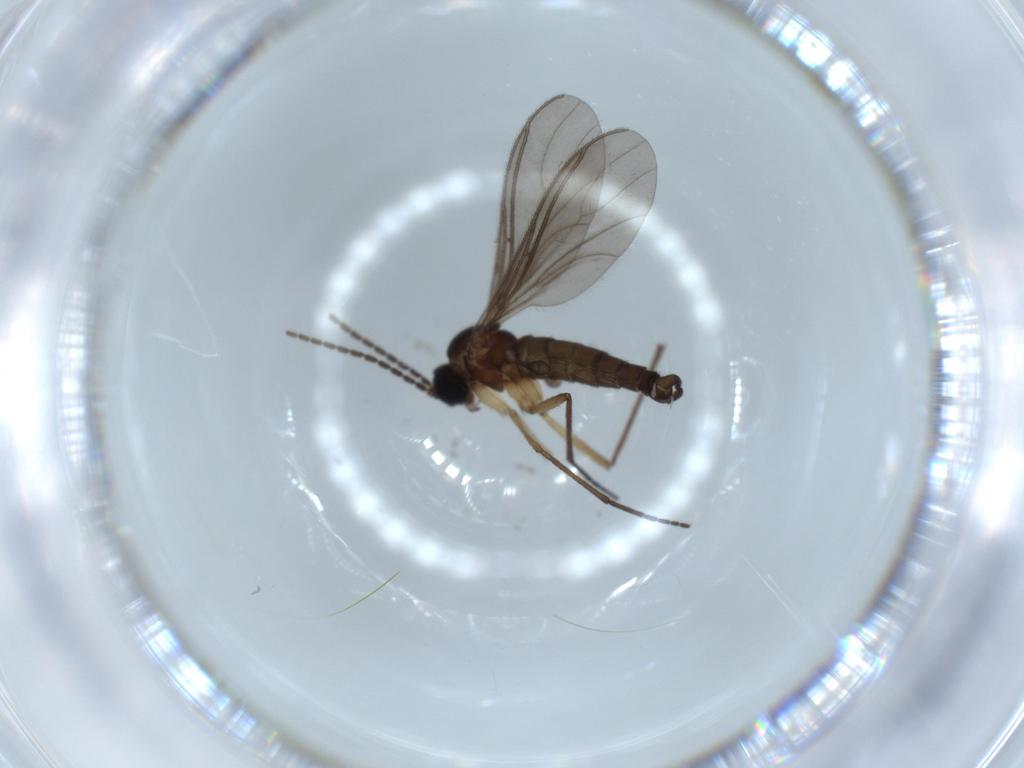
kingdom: Animalia
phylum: Arthropoda
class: Insecta
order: Diptera
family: Sciaridae
